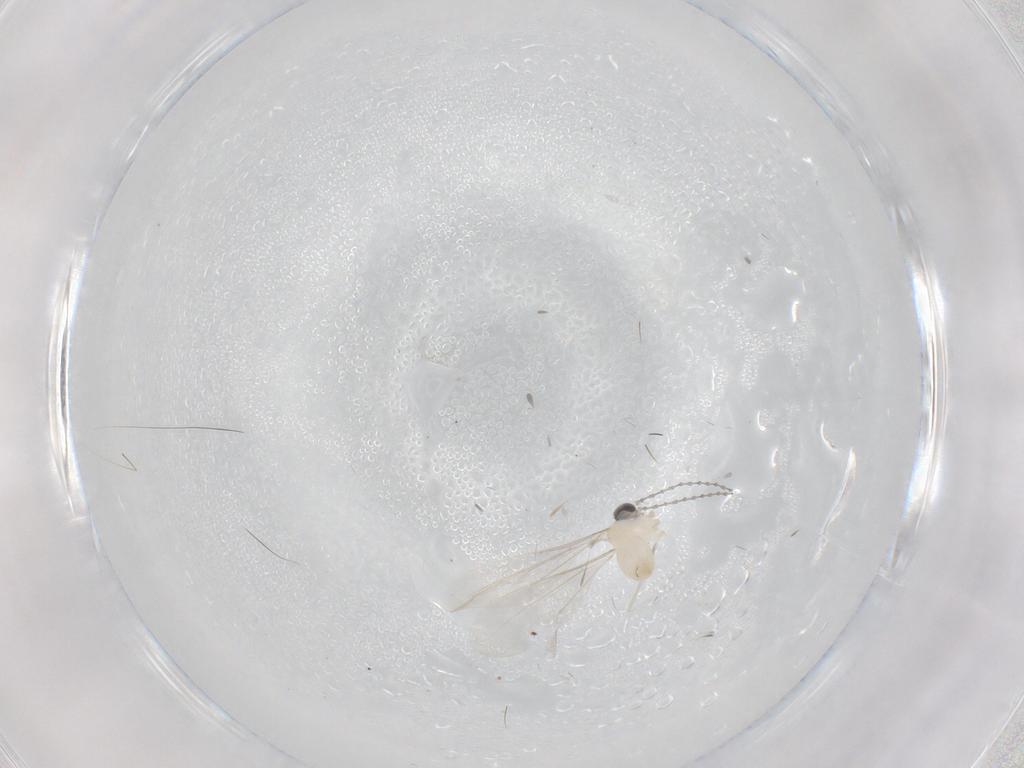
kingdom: Animalia
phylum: Arthropoda
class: Insecta
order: Diptera
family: Cecidomyiidae
